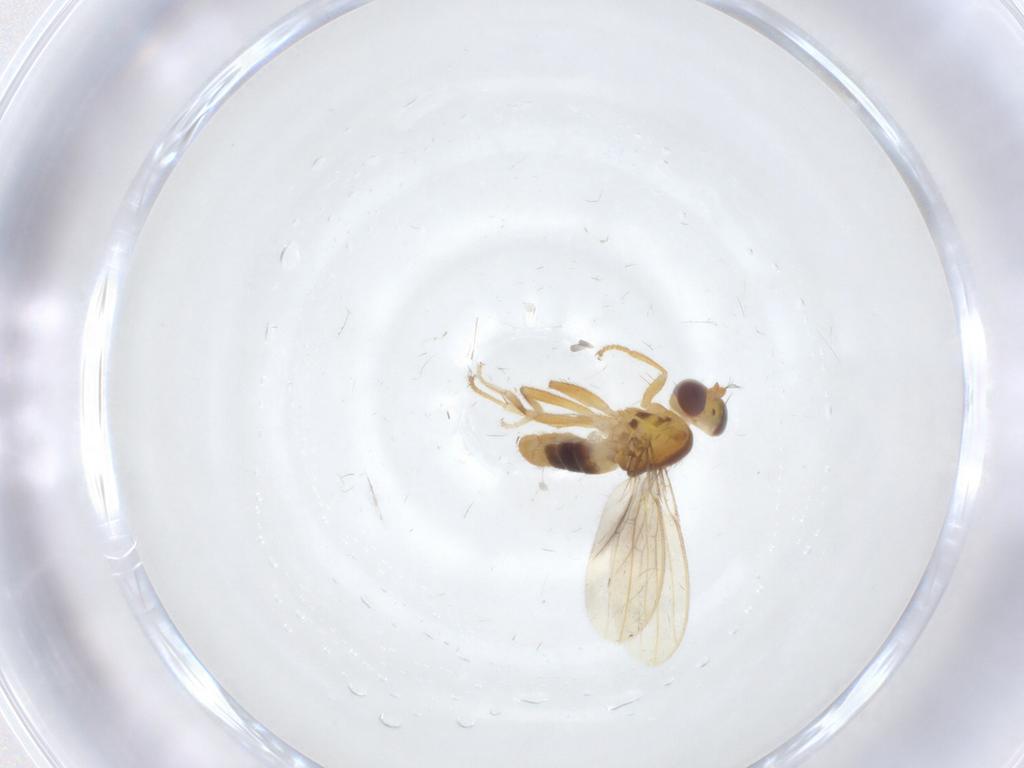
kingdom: Animalia
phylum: Arthropoda
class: Insecta
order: Diptera
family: Periscelididae
